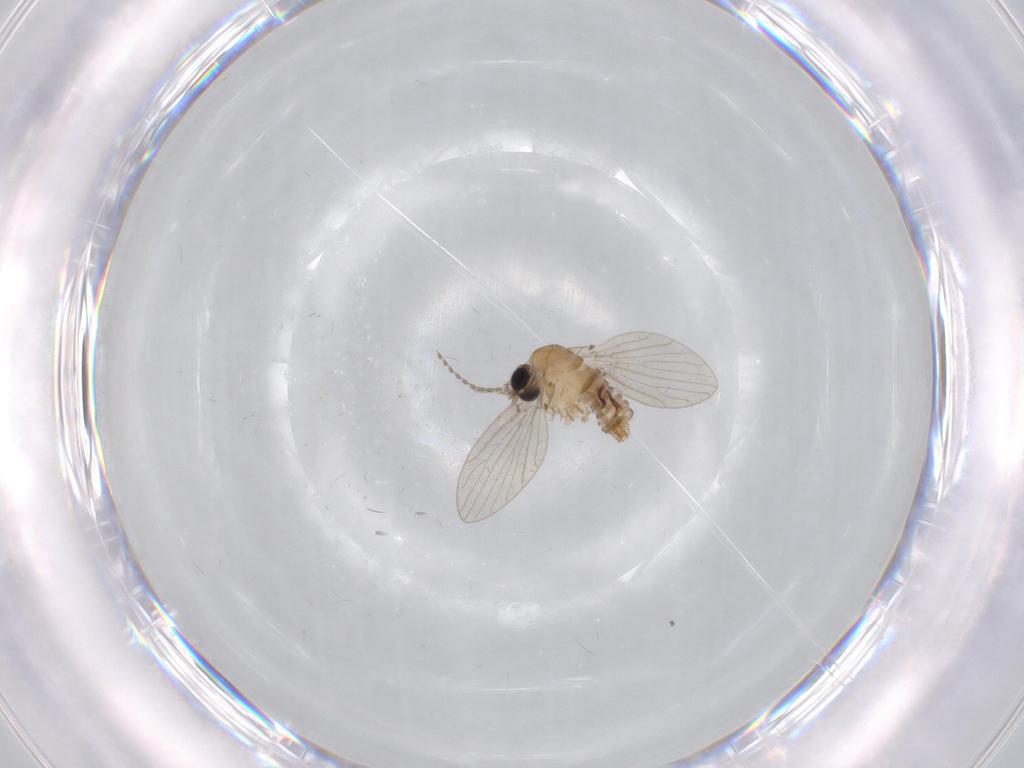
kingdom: Animalia
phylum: Arthropoda
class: Insecta
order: Diptera
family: Psychodidae
